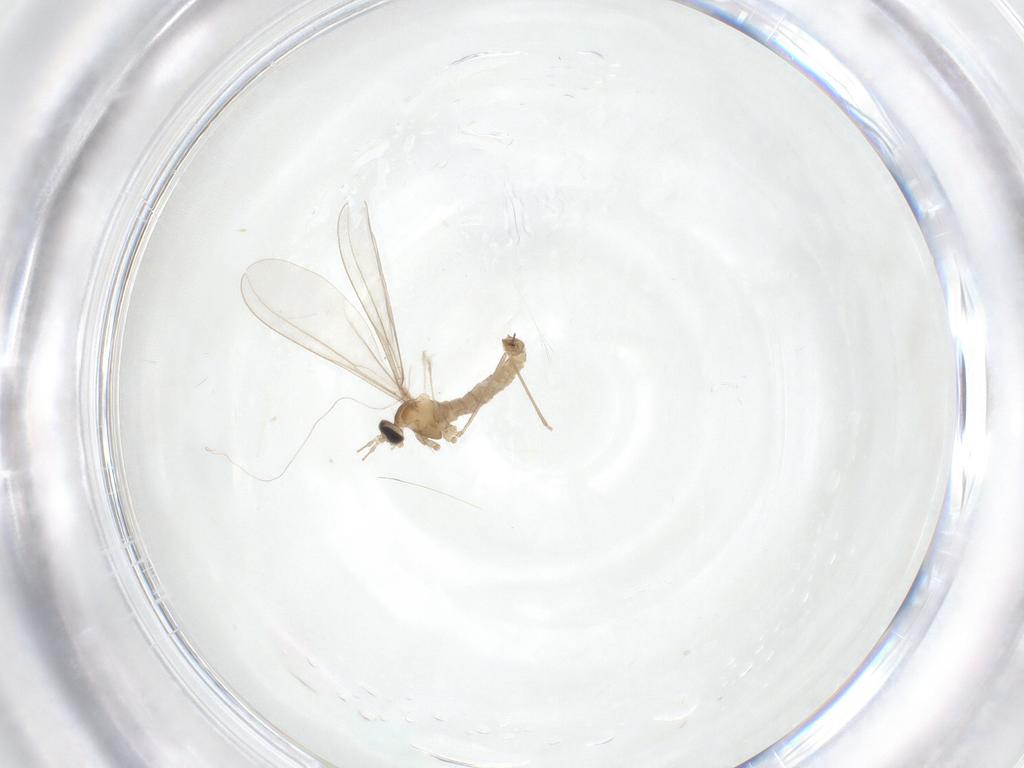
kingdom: Animalia
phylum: Arthropoda
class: Insecta
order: Diptera
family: Cecidomyiidae
